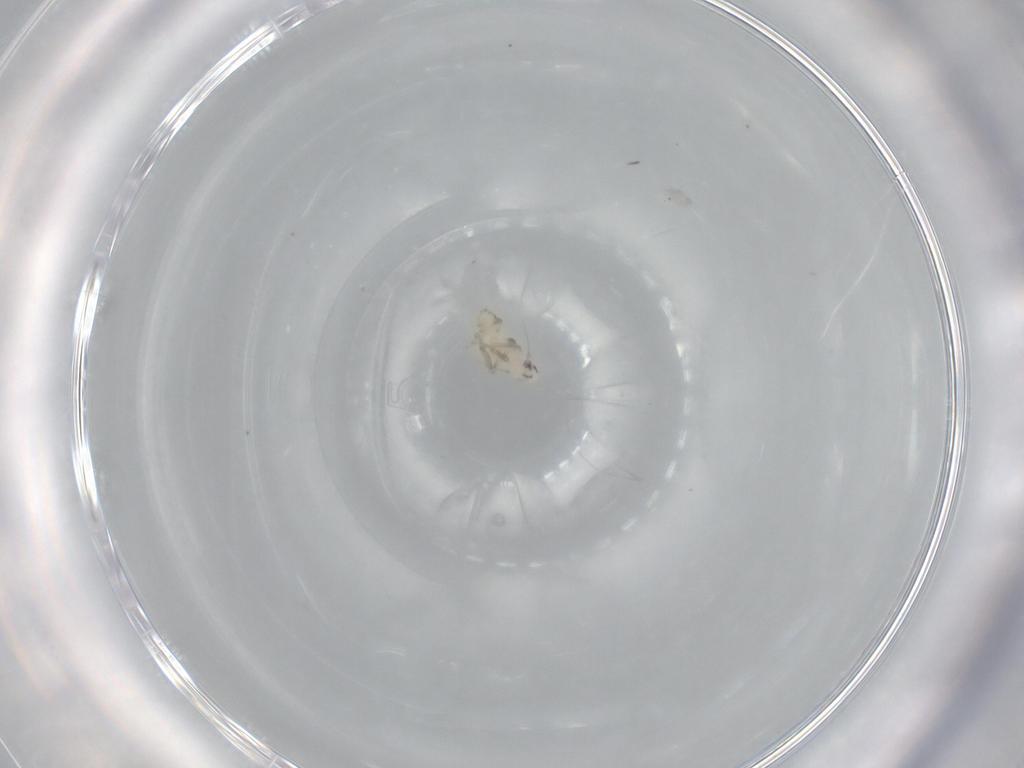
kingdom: Animalia
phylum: Arthropoda
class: Insecta
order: Hemiptera
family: Delphacidae
